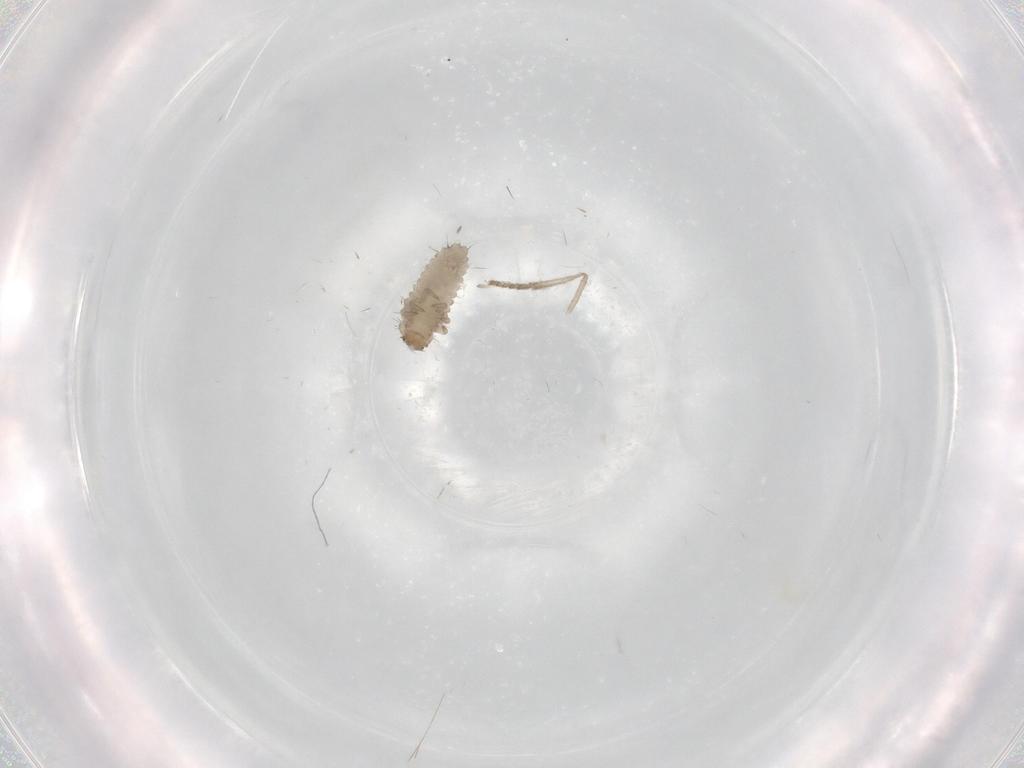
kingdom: Animalia
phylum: Arthropoda
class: Insecta
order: Coleoptera
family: Coccinellidae
